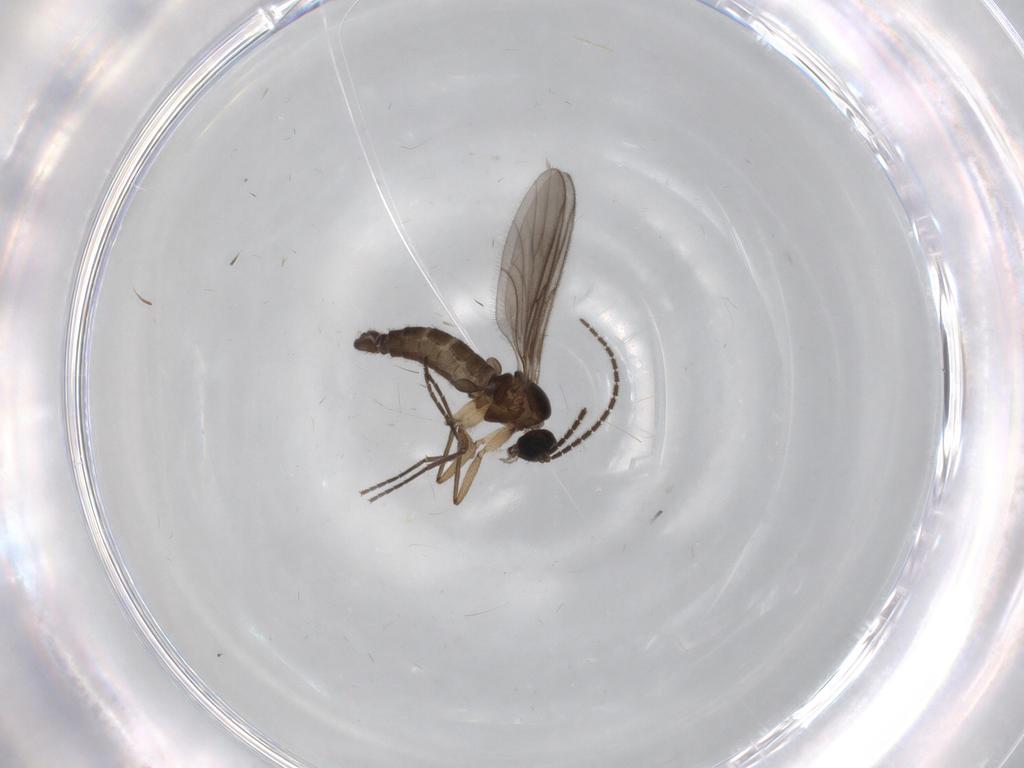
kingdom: Animalia
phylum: Arthropoda
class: Insecta
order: Diptera
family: Sciaridae
